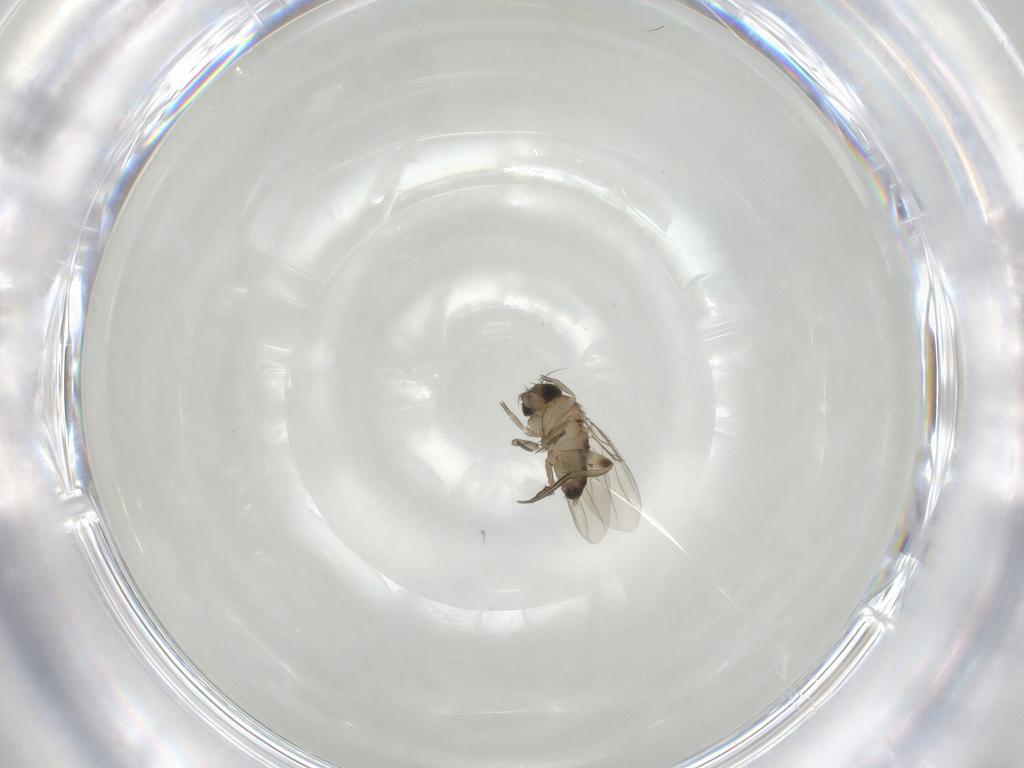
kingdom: Animalia
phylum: Arthropoda
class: Insecta
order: Diptera
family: Phoridae
